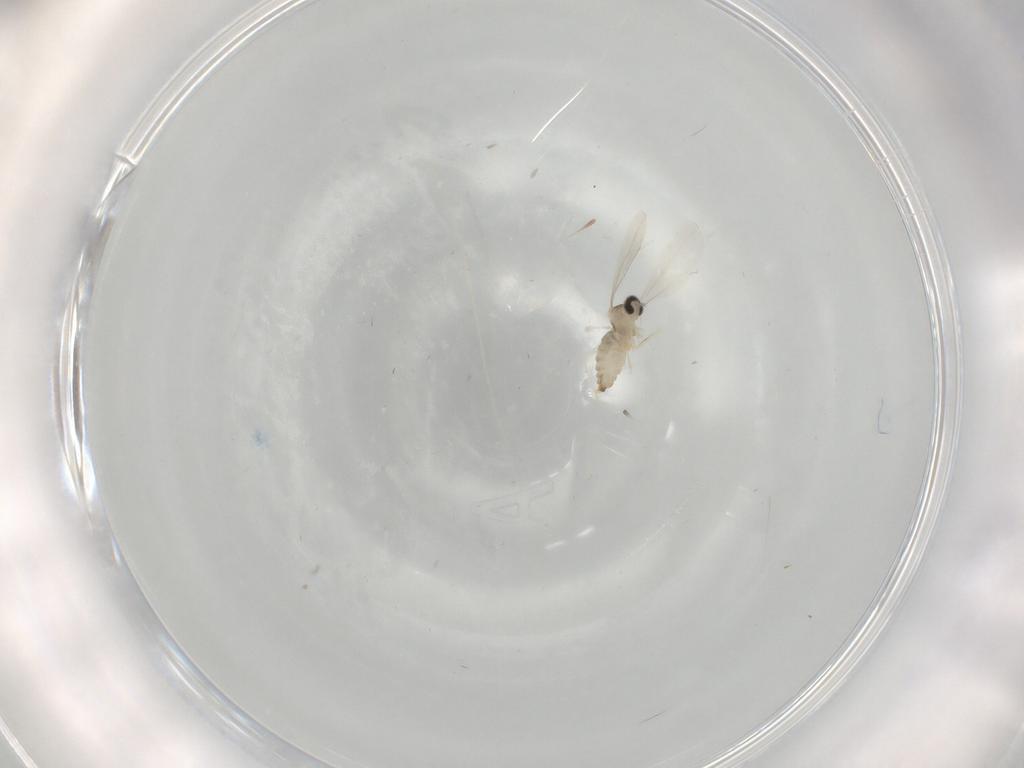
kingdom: Animalia
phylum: Arthropoda
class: Insecta
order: Diptera
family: Cecidomyiidae
